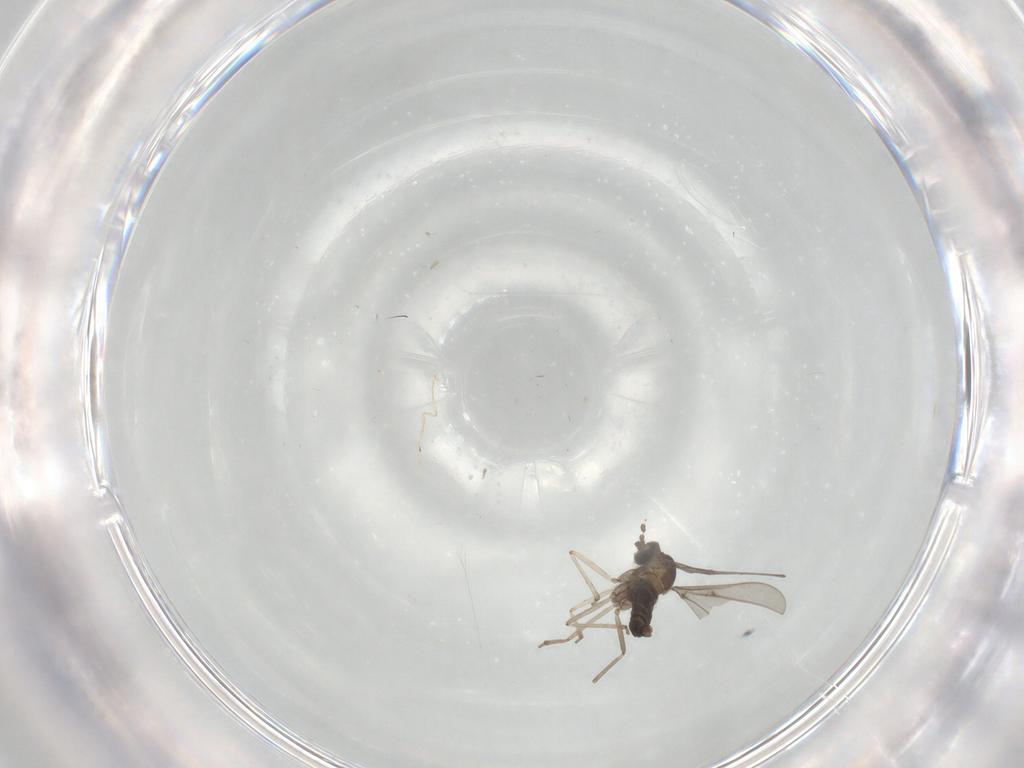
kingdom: Animalia
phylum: Arthropoda
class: Insecta
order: Diptera
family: Cecidomyiidae
